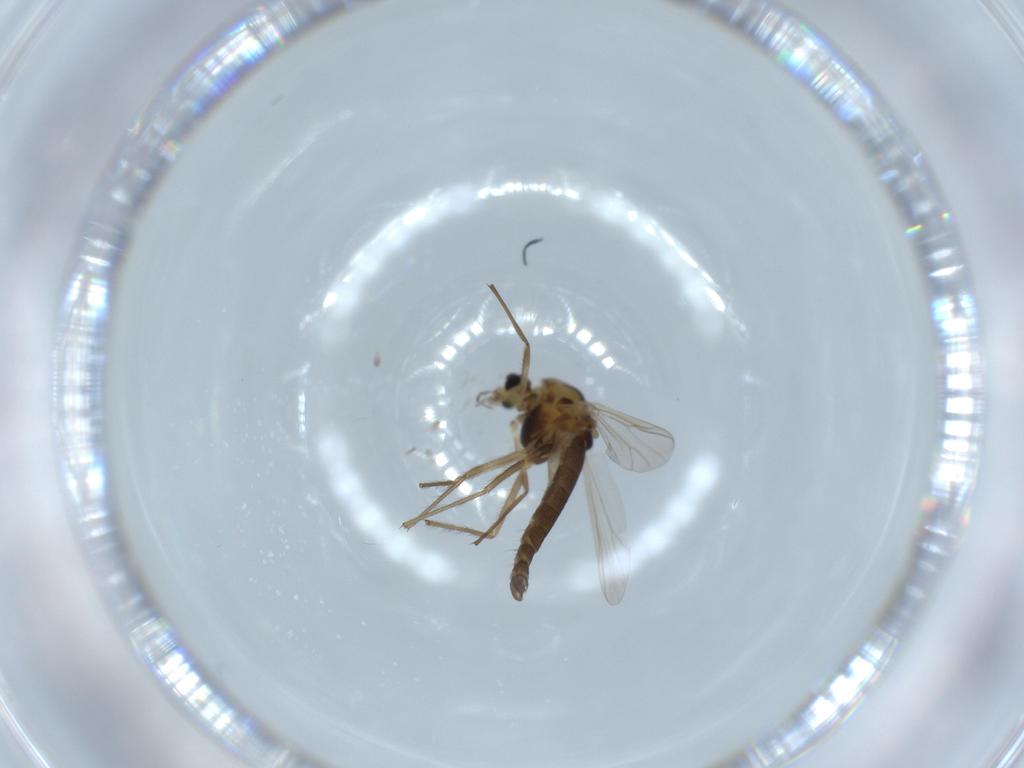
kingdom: Animalia
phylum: Arthropoda
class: Insecta
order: Diptera
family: Chironomidae
